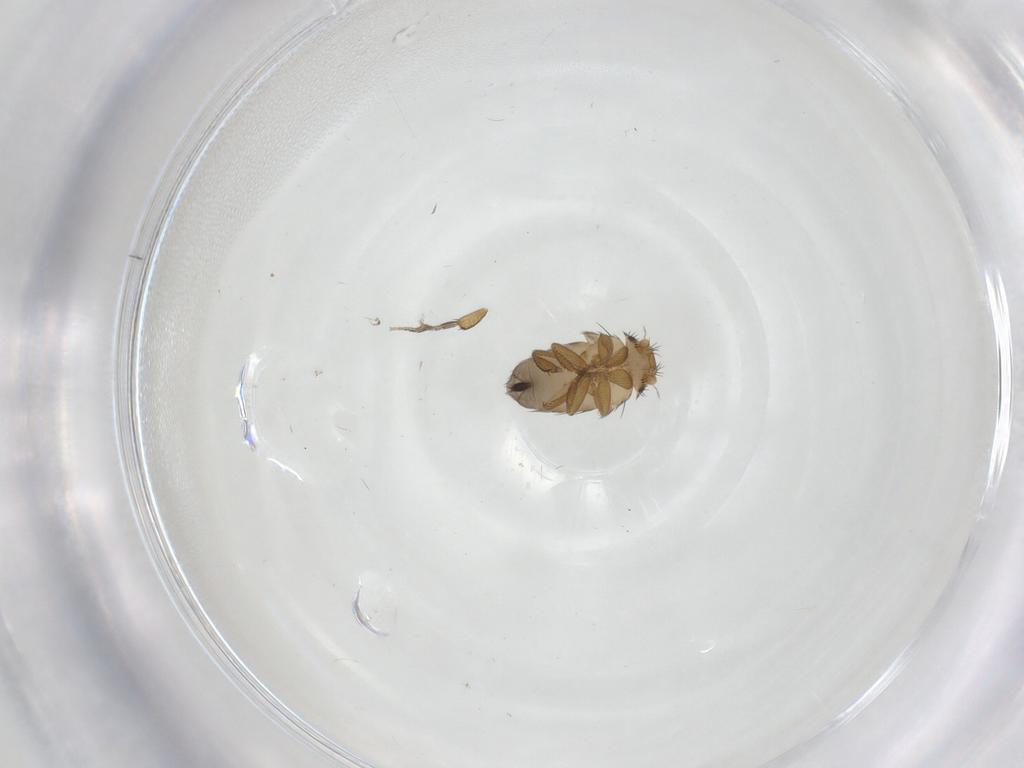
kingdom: Animalia
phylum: Arthropoda
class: Insecta
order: Diptera
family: Phoridae
